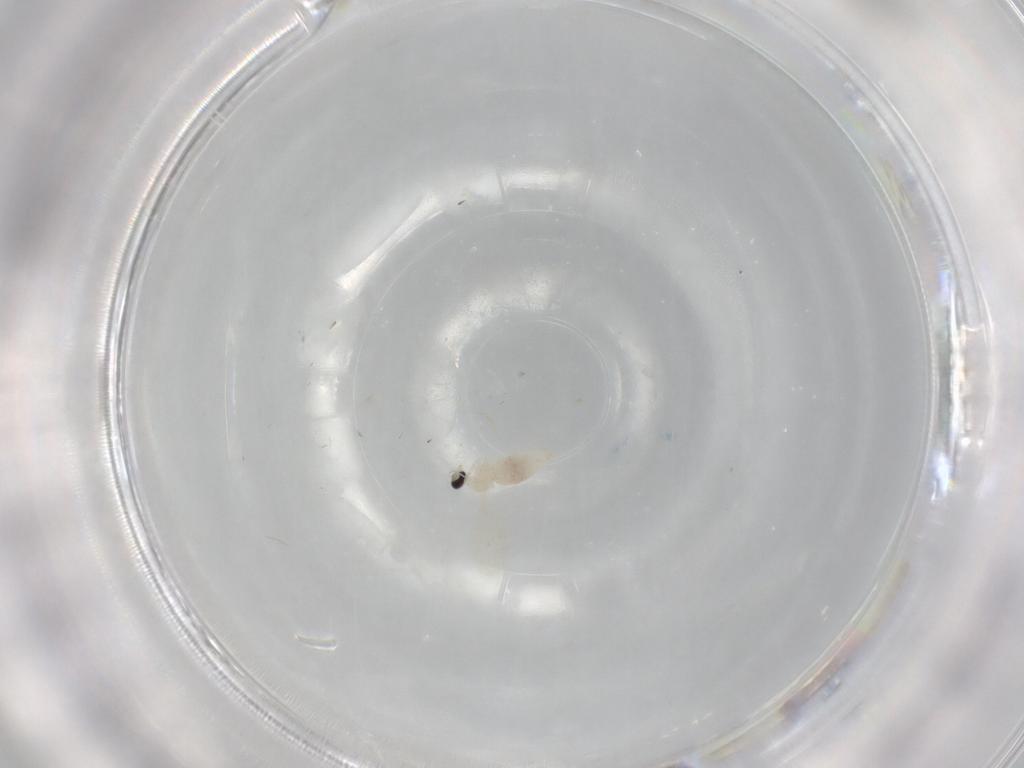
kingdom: Animalia
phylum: Arthropoda
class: Insecta
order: Diptera
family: Cecidomyiidae
